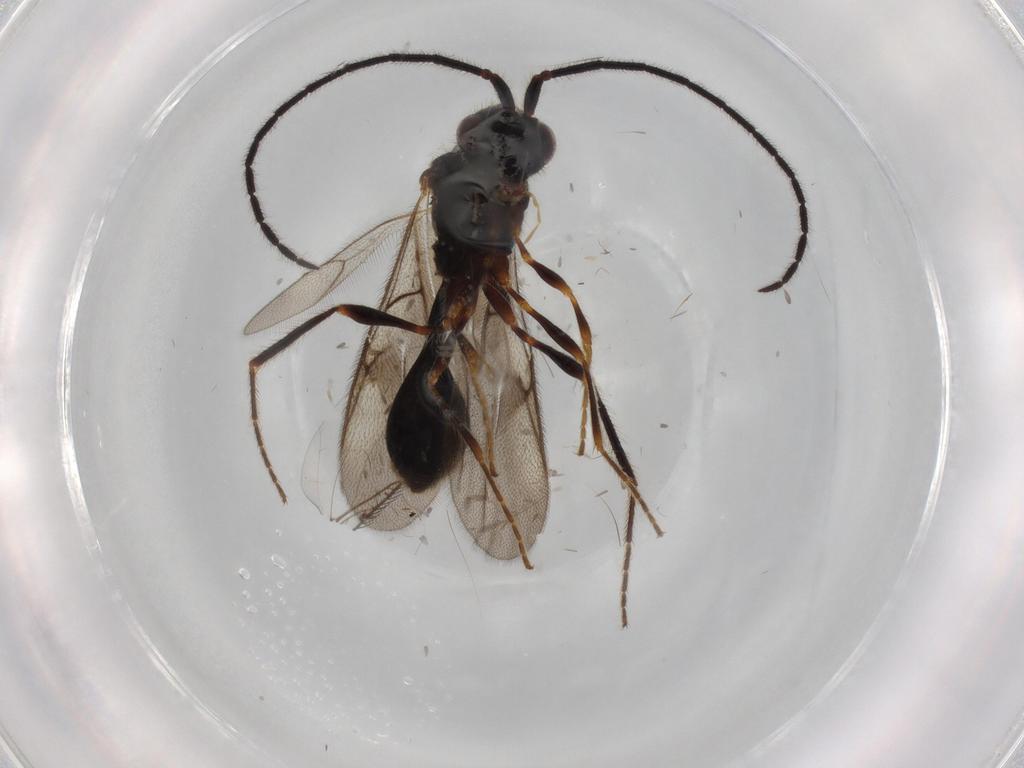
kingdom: Animalia
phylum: Arthropoda
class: Insecta
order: Hymenoptera
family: Diapriidae
